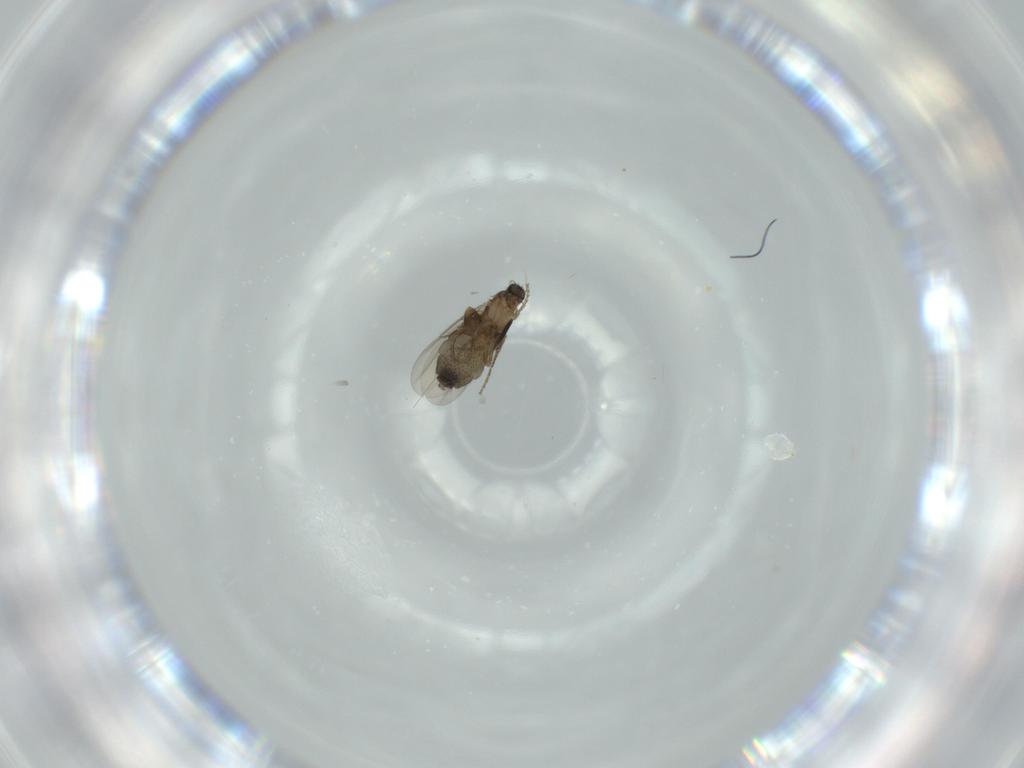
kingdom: Animalia
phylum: Arthropoda
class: Insecta
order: Diptera
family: Phoridae
